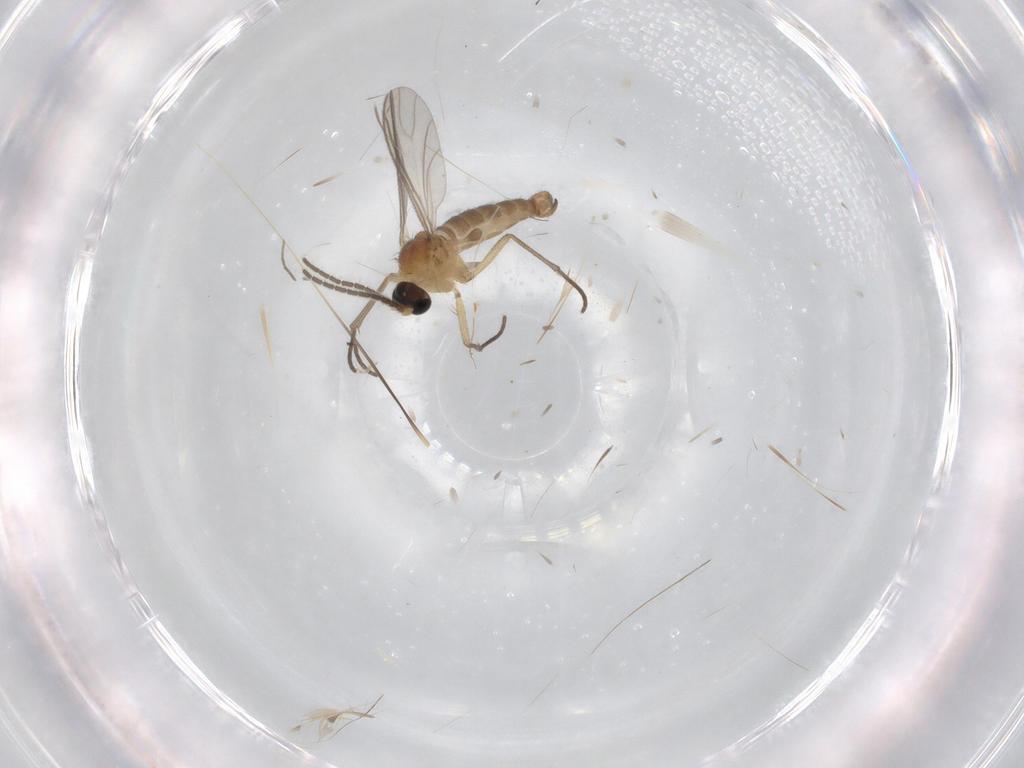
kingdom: Animalia
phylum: Arthropoda
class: Insecta
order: Diptera
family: Sciaridae
